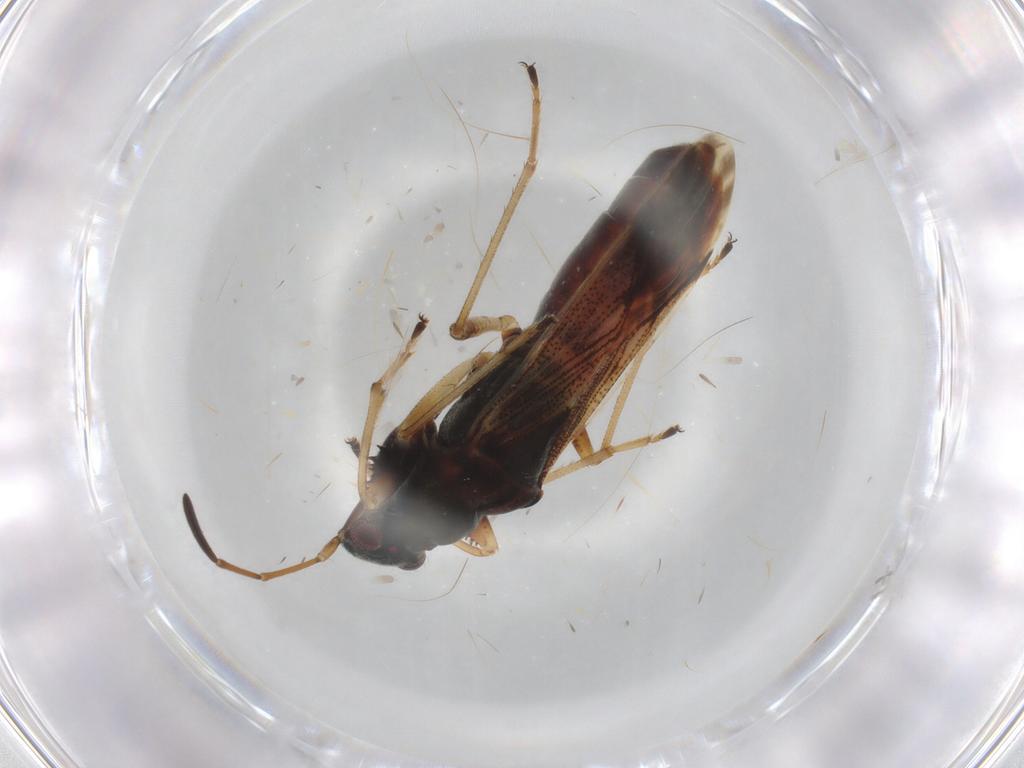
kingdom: Animalia
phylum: Arthropoda
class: Insecta
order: Hemiptera
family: Rhyparochromidae
